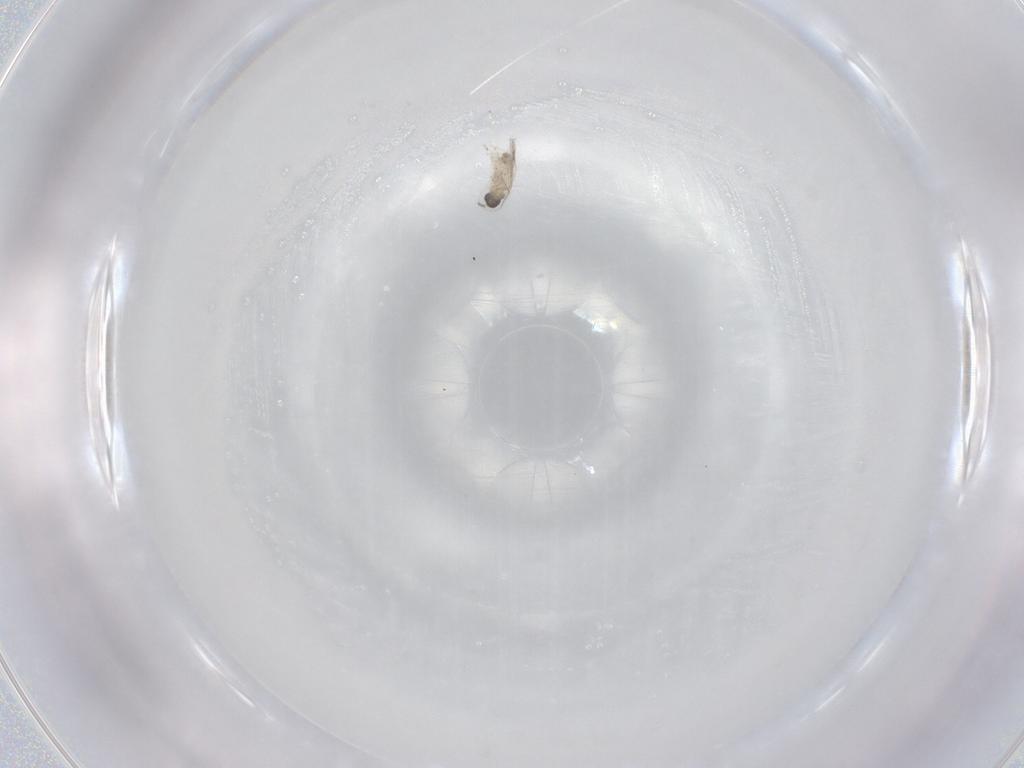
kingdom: Animalia
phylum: Arthropoda
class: Insecta
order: Diptera
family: Cecidomyiidae
